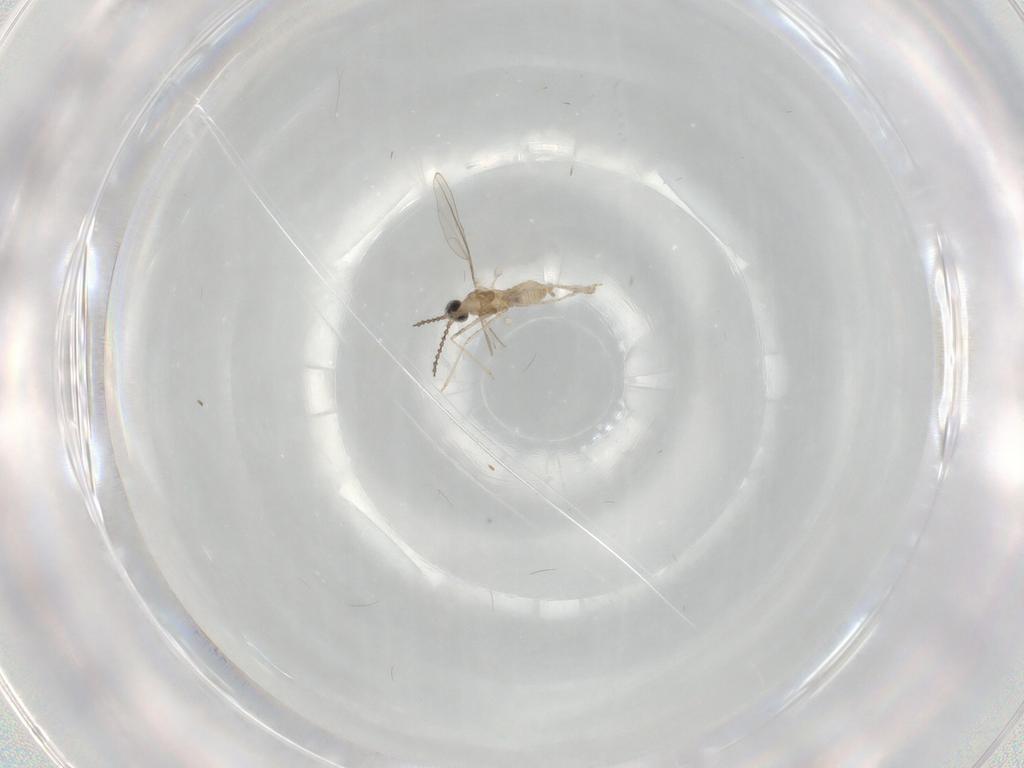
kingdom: Animalia
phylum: Arthropoda
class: Insecta
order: Diptera
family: Cecidomyiidae
